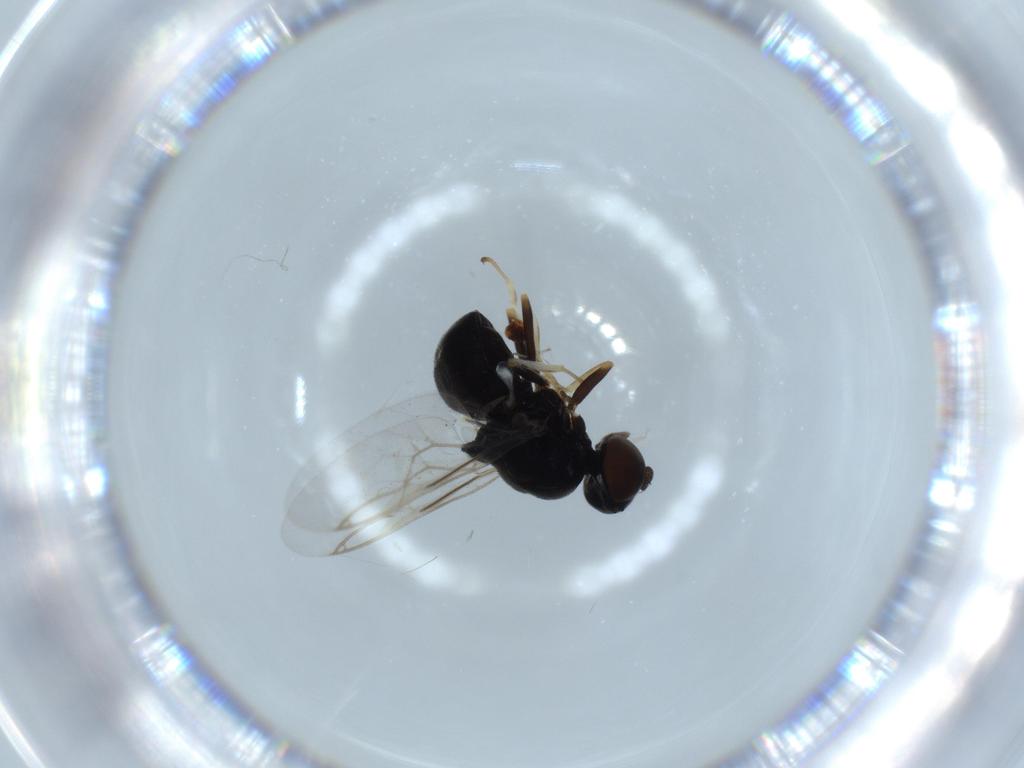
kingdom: Animalia
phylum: Arthropoda
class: Insecta
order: Diptera
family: Stratiomyidae
